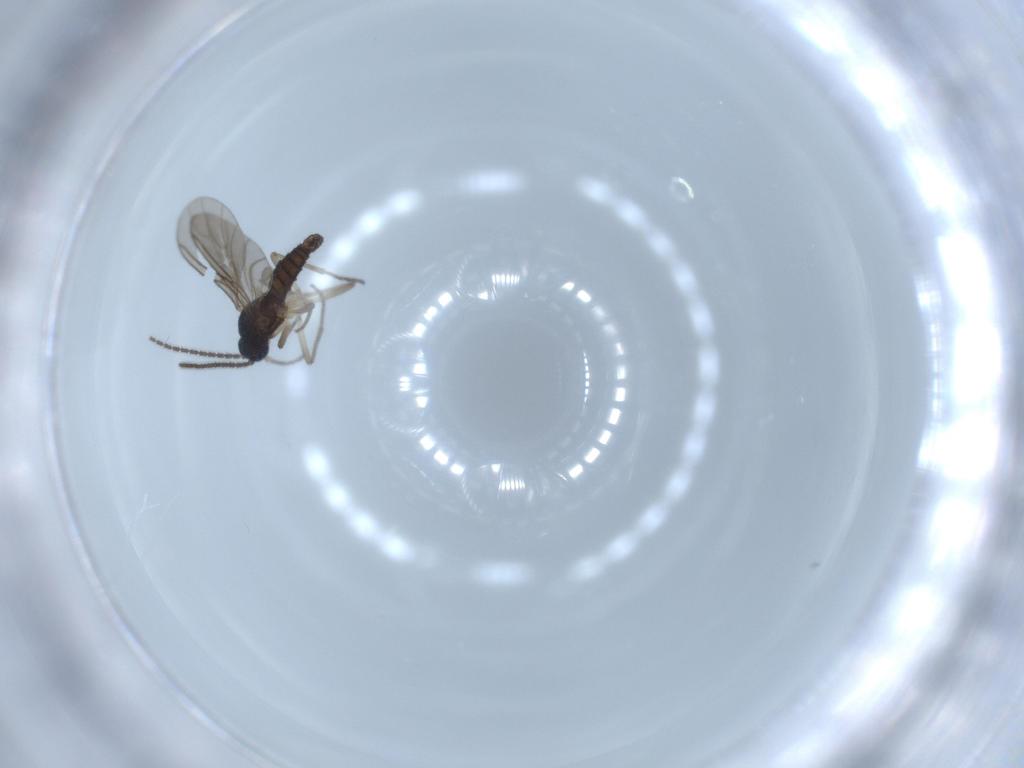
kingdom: Animalia
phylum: Arthropoda
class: Insecta
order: Diptera
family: Sciaridae
